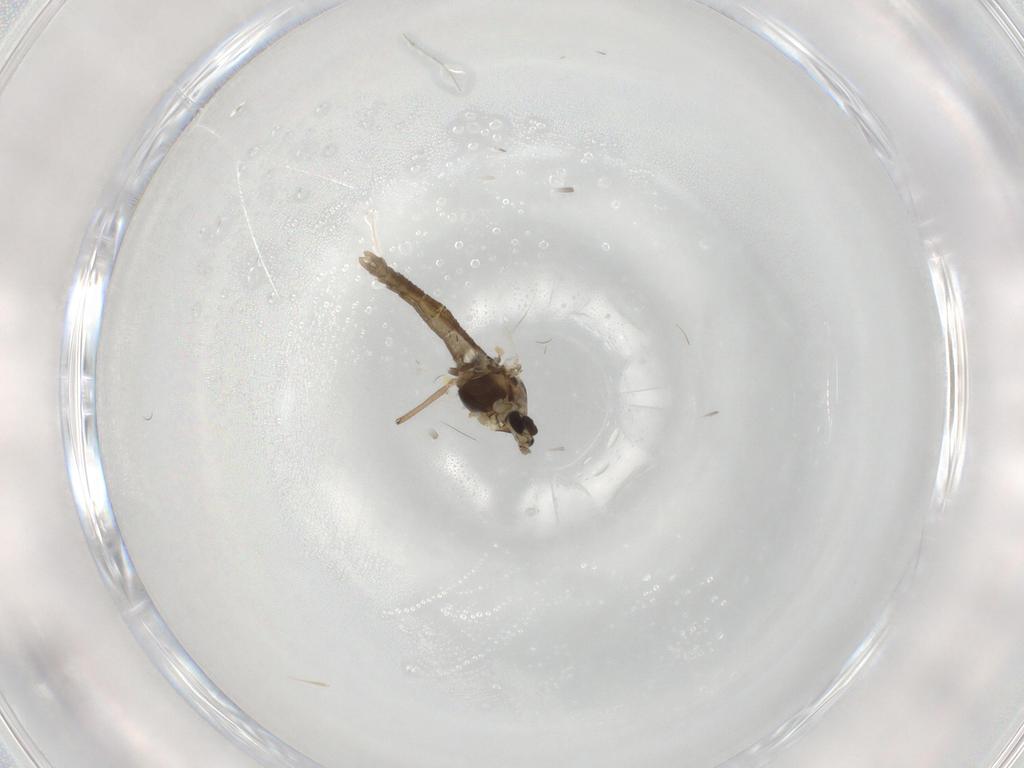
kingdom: Animalia
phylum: Arthropoda
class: Insecta
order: Diptera
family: Chironomidae
